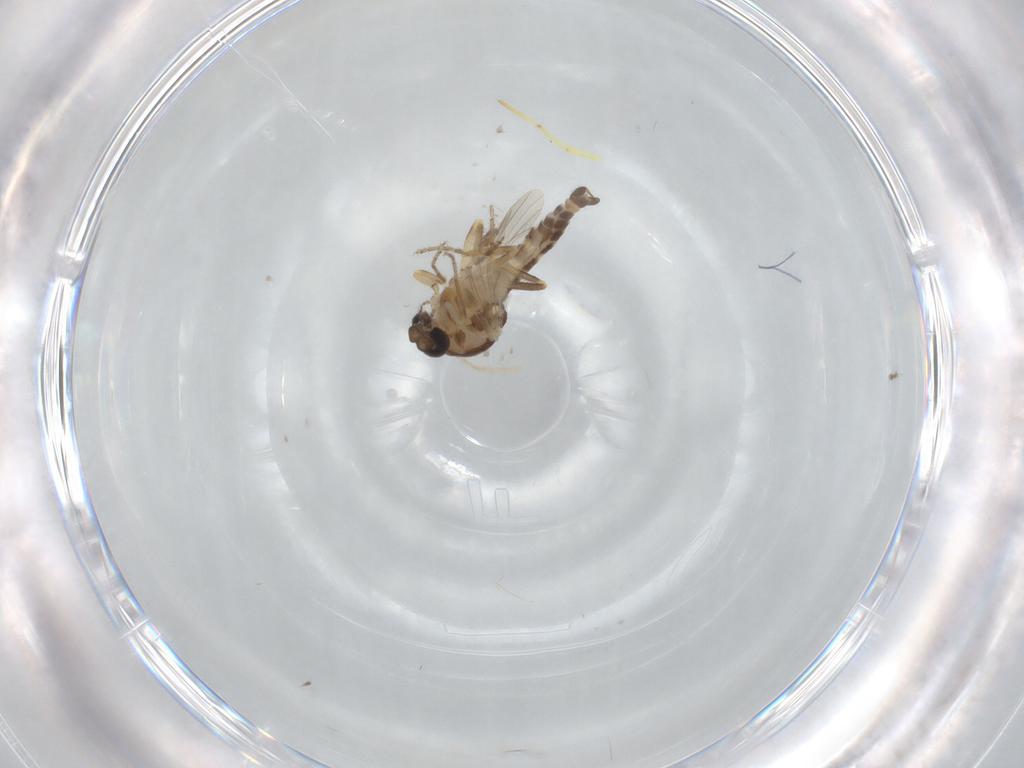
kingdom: Animalia
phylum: Arthropoda
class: Insecta
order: Diptera
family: Ceratopogonidae
